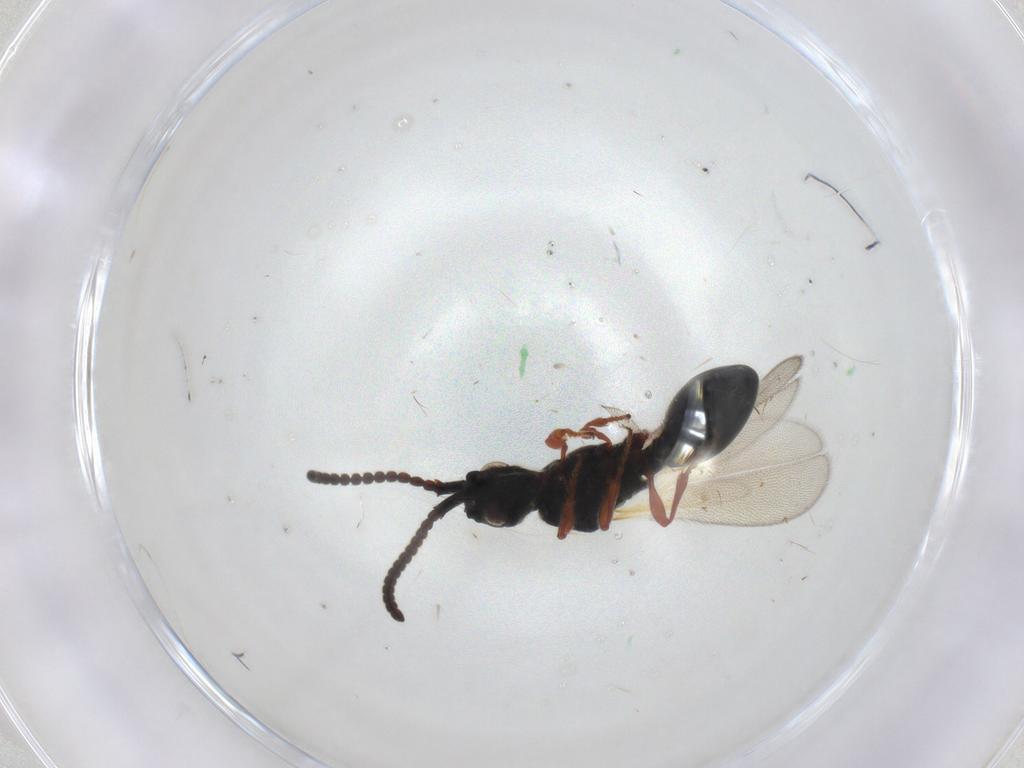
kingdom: Animalia
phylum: Arthropoda
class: Insecta
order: Hymenoptera
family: Diapriidae
